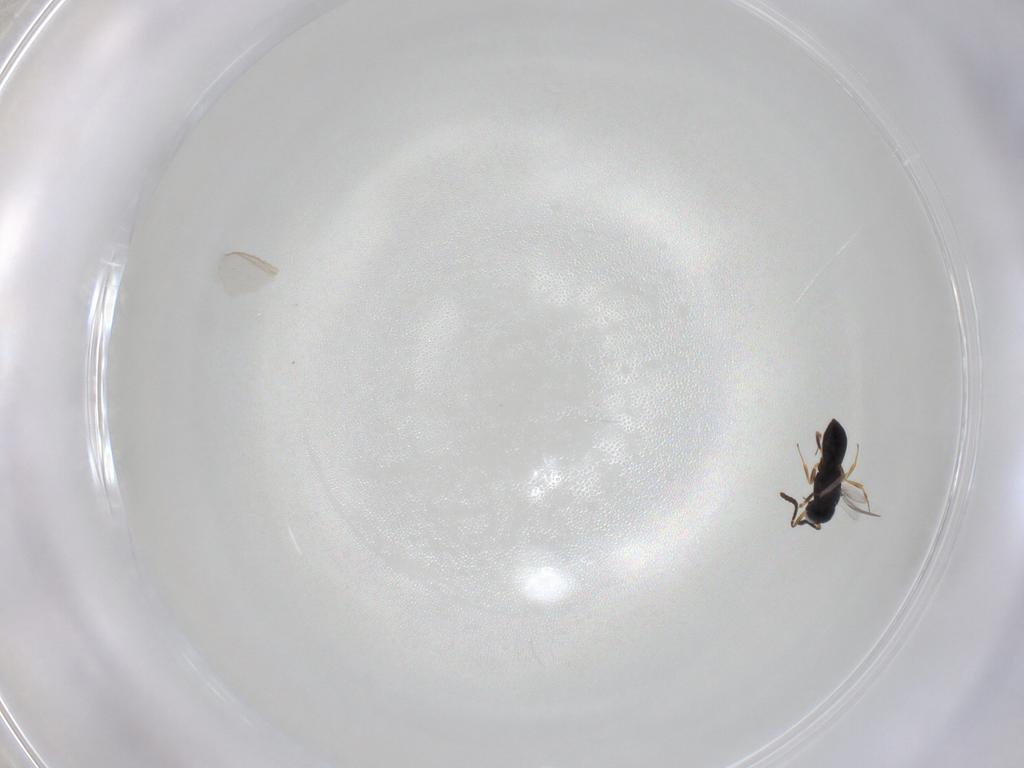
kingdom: Animalia
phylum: Arthropoda
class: Insecta
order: Hymenoptera
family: Scelionidae
